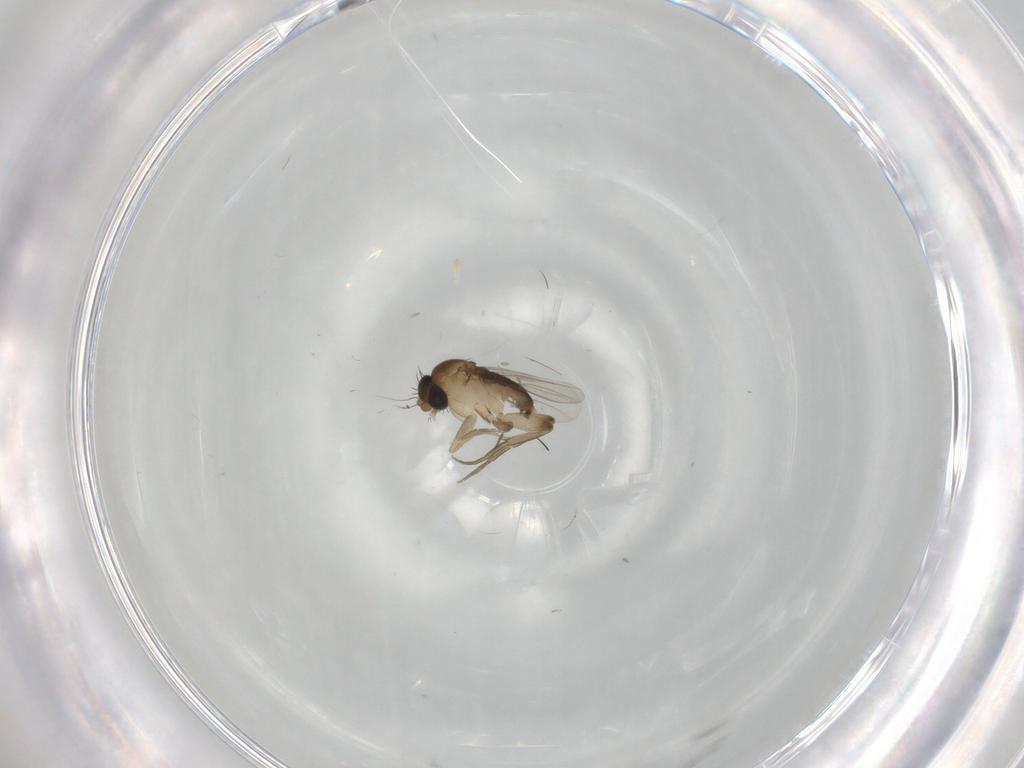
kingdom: Animalia
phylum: Arthropoda
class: Insecta
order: Diptera
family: Phoridae
